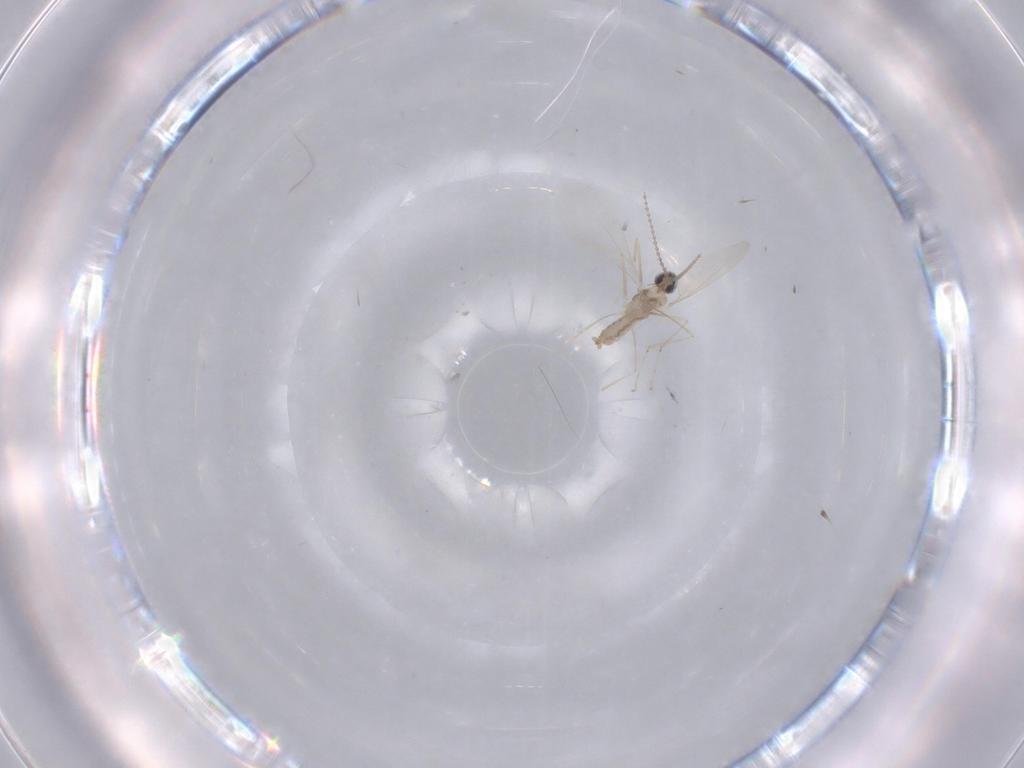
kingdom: Animalia
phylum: Arthropoda
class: Insecta
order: Diptera
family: Cecidomyiidae
